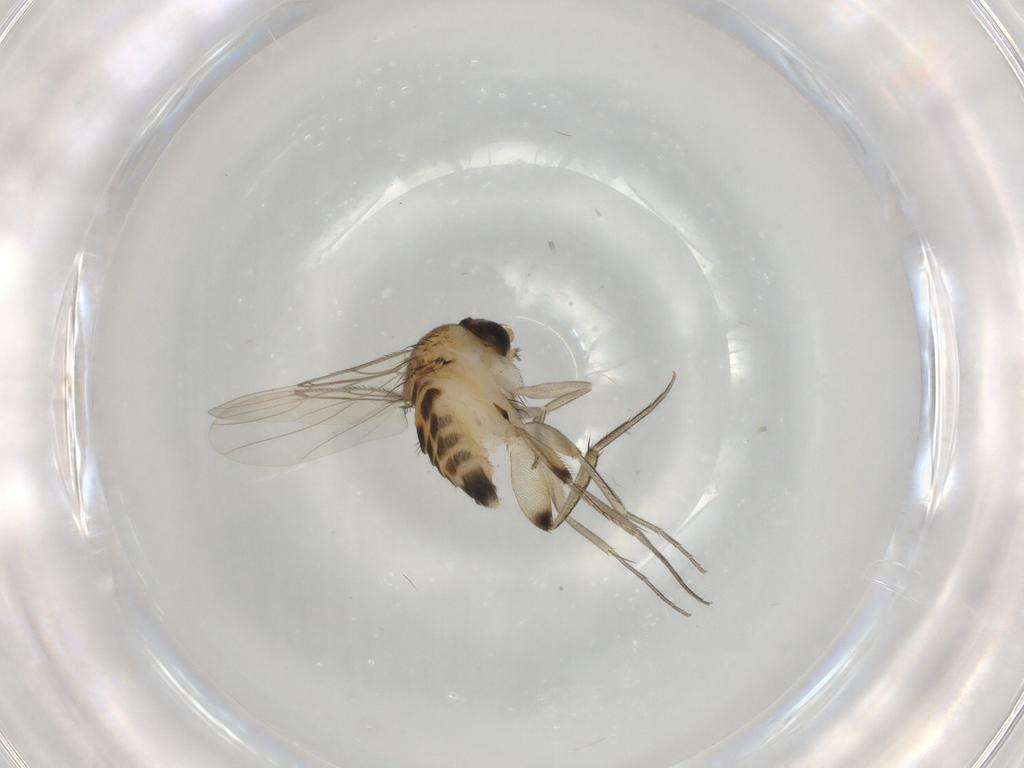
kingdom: Animalia
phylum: Arthropoda
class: Insecta
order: Diptera
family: Phoridae
